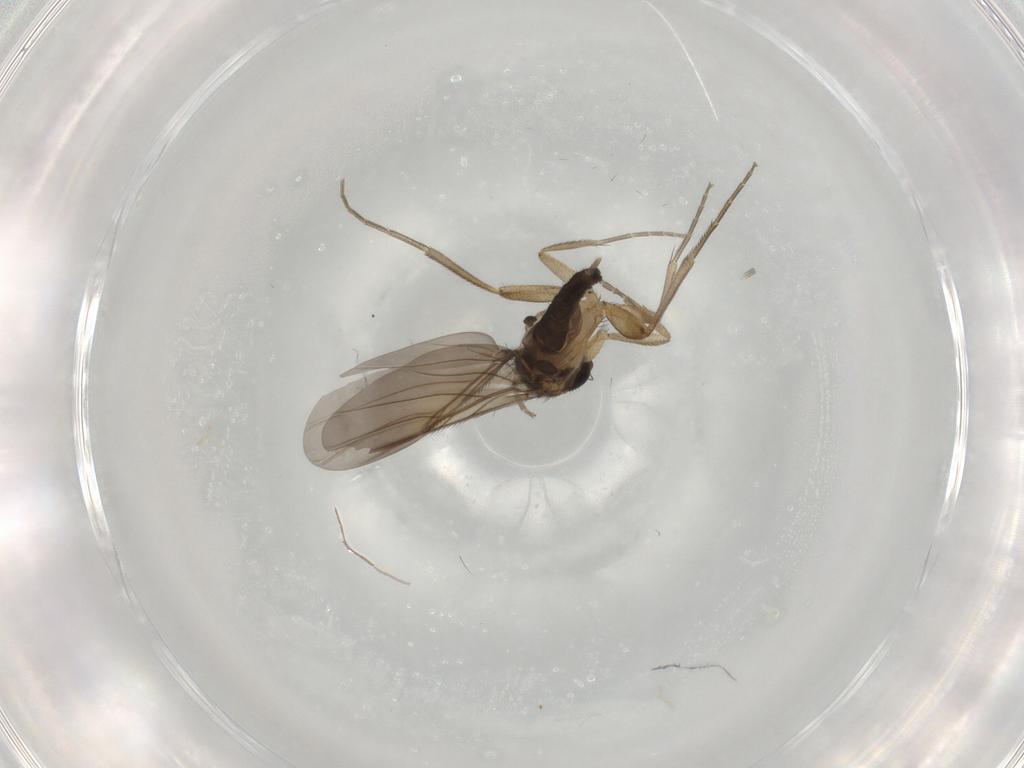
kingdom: Animalia
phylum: Arthropoda
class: Insecta
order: Diptera
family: Phoridae
